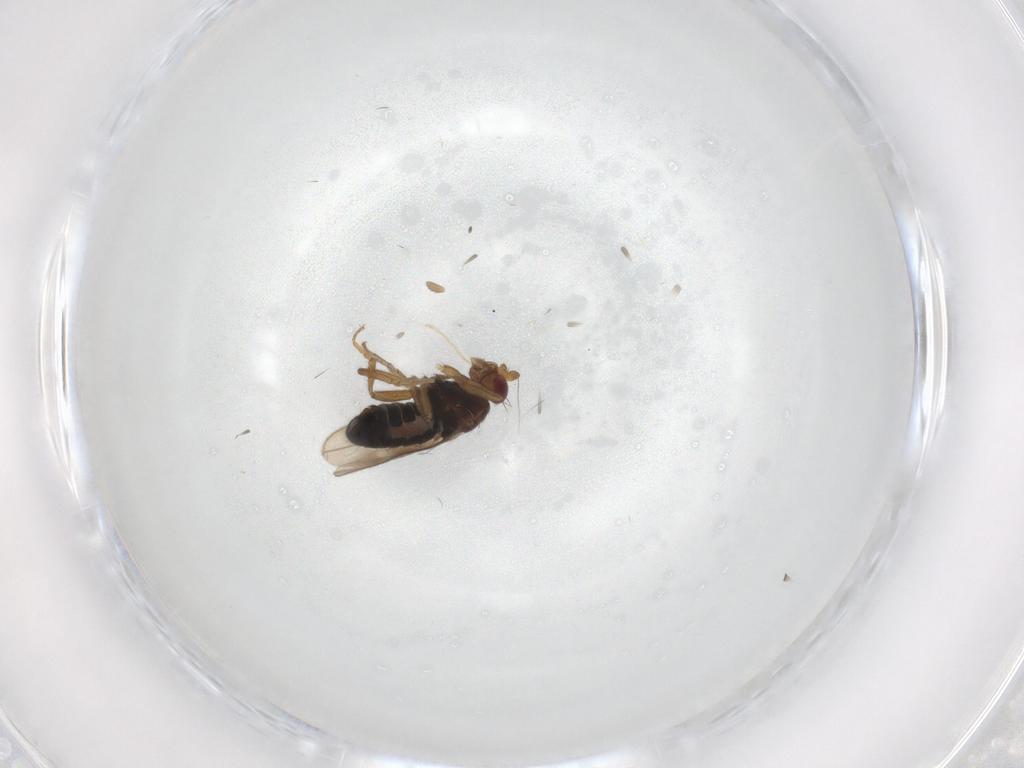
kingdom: Animalia
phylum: Arthropoda
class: Insecta
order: Diptera
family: Sphaeroceridae
